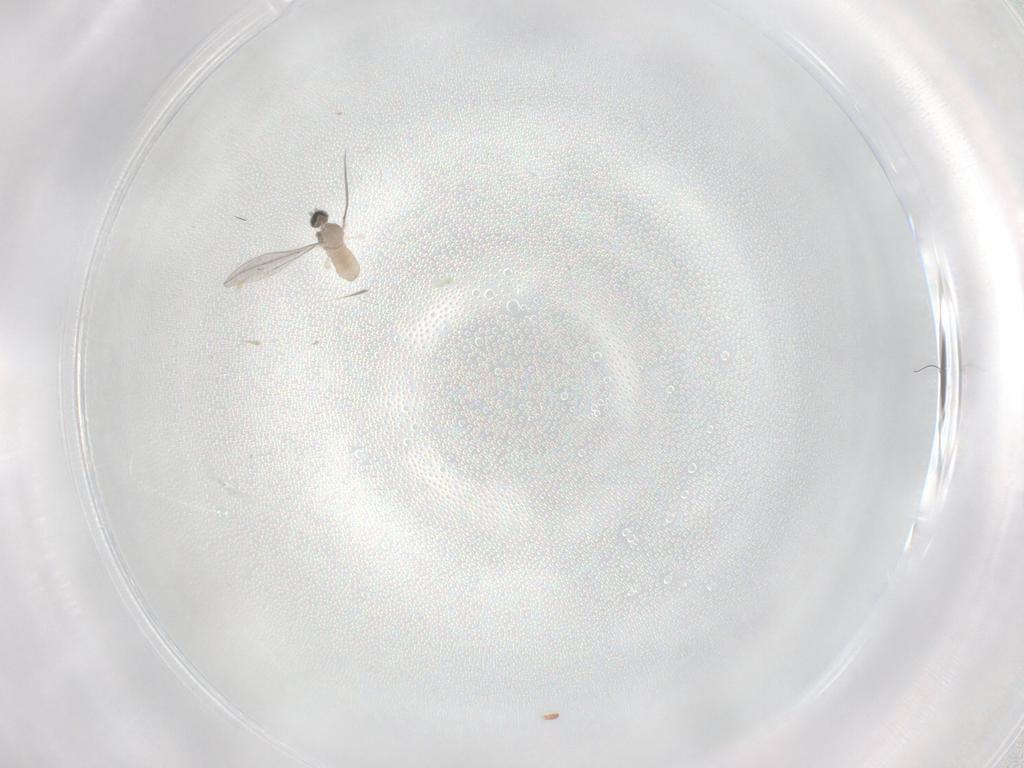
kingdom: Animalia
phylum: Arthropoda
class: Insecta
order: Diptera
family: Cecidomyiidae
